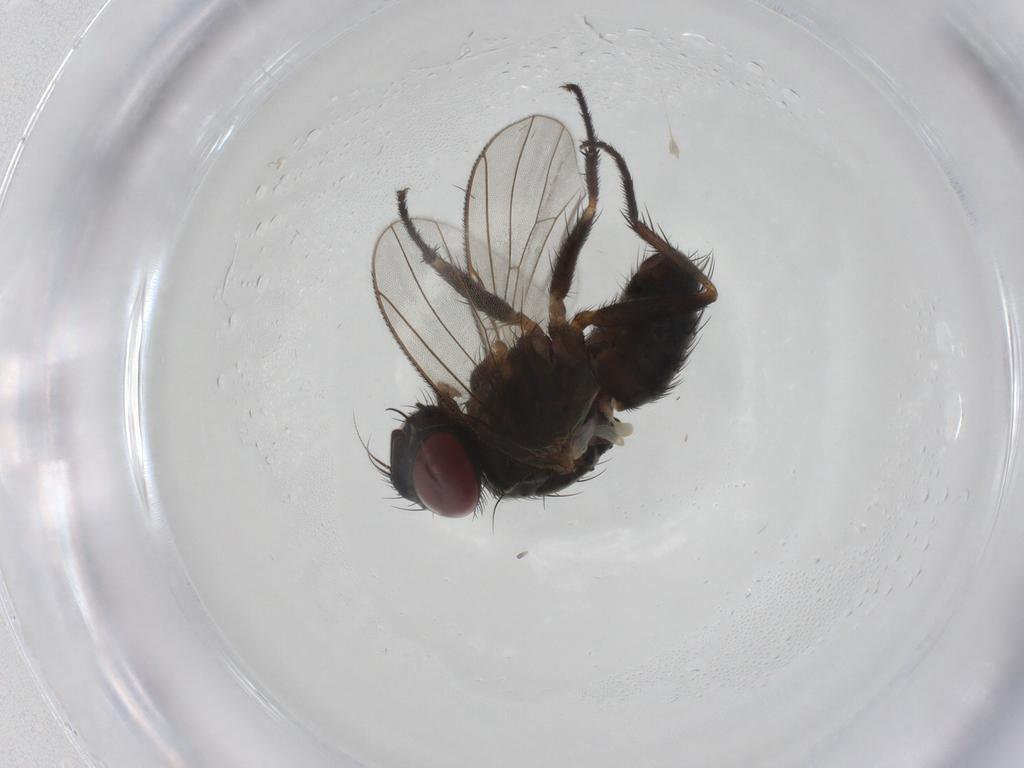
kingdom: Animalia
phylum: Arthropoda
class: Insecta
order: Diptera
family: Muscidae
